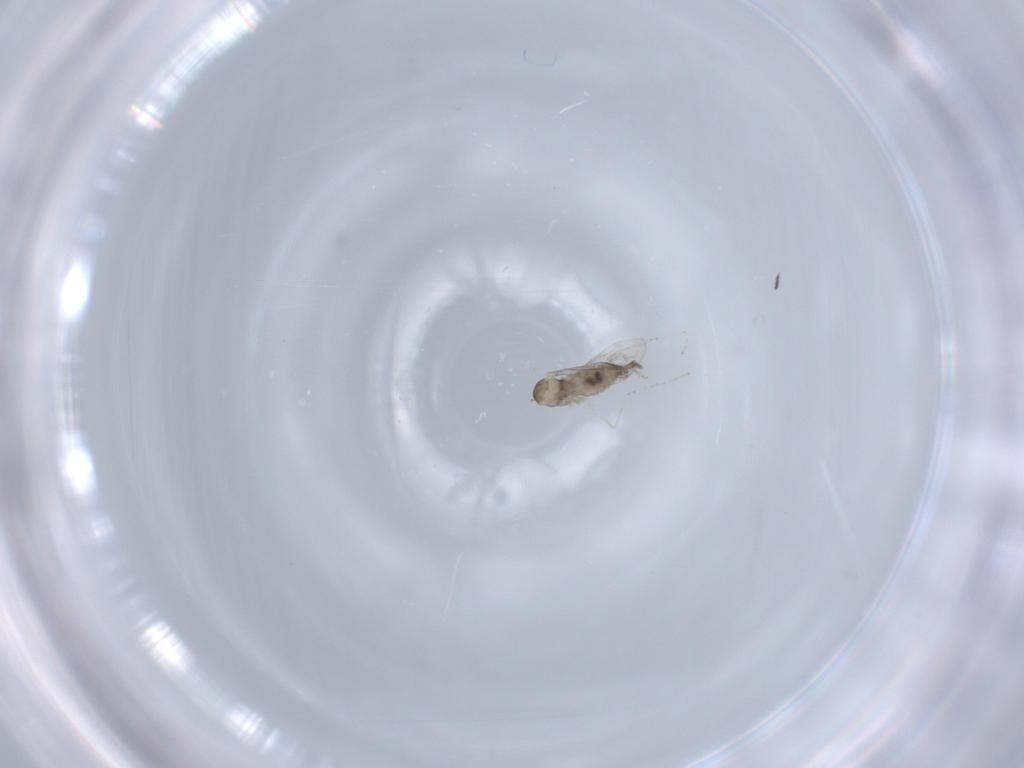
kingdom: Animalia
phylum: Arthropoda
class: Insecta
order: Diptera
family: Cecidomyiidae
